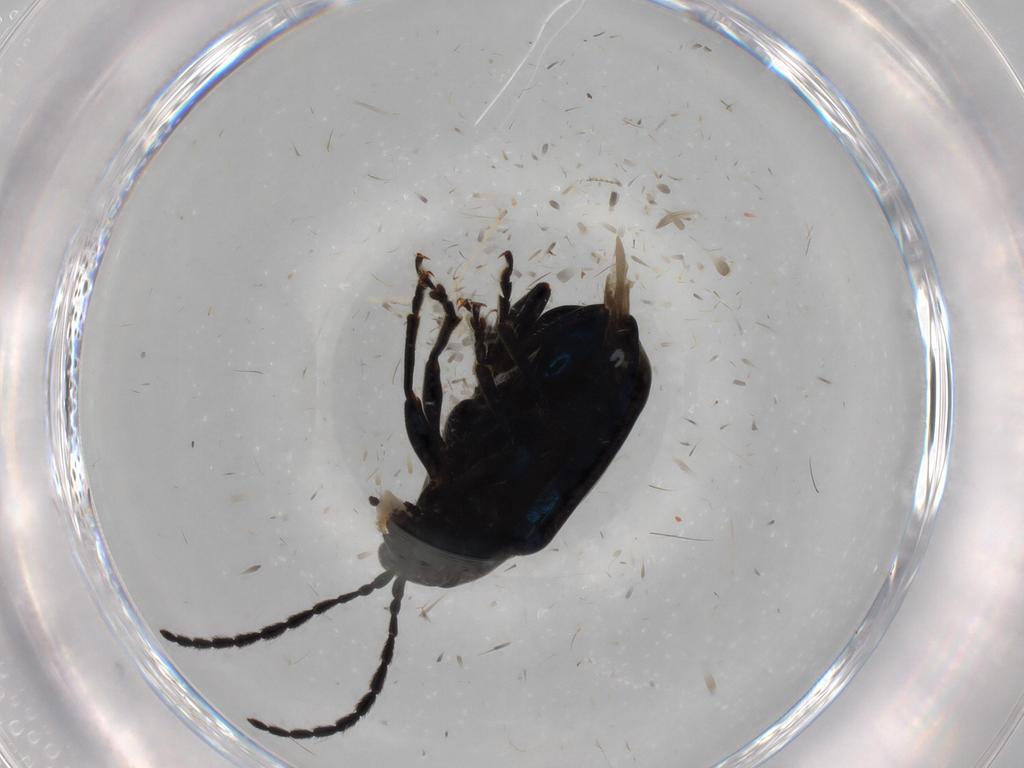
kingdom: Animalia
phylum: Arthropoda
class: Insecta
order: Coleoptera
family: Chrysomelidae
